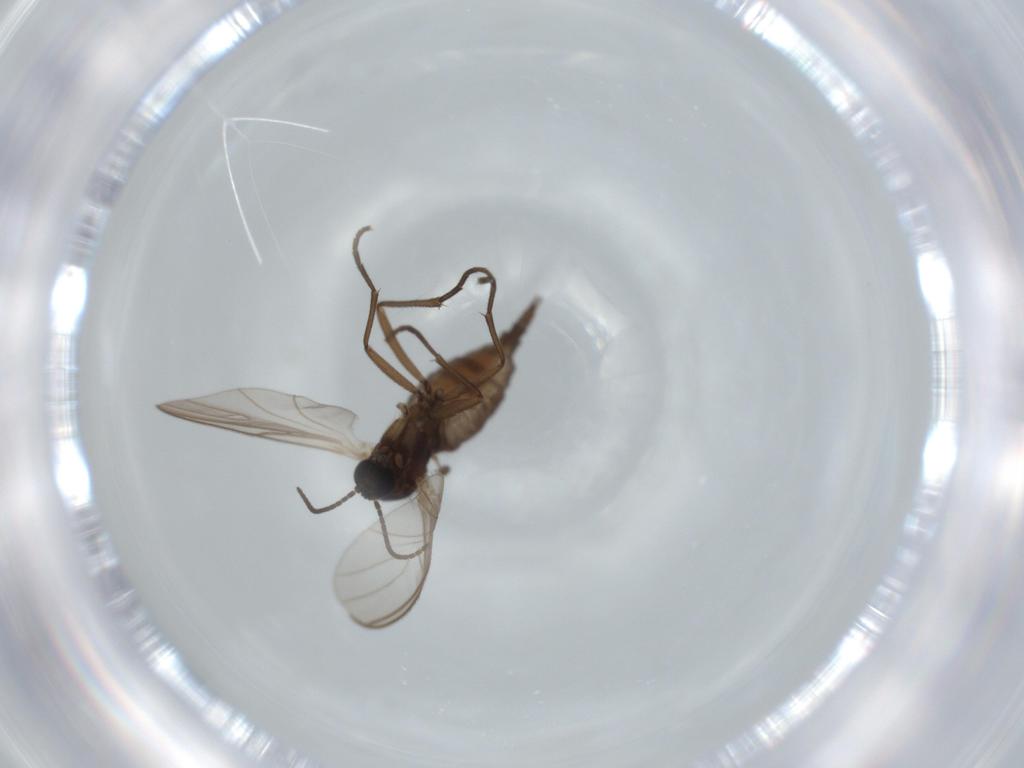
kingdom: Animalia
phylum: Arthropoda
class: Insecta
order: Diptera
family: Sciaridae
